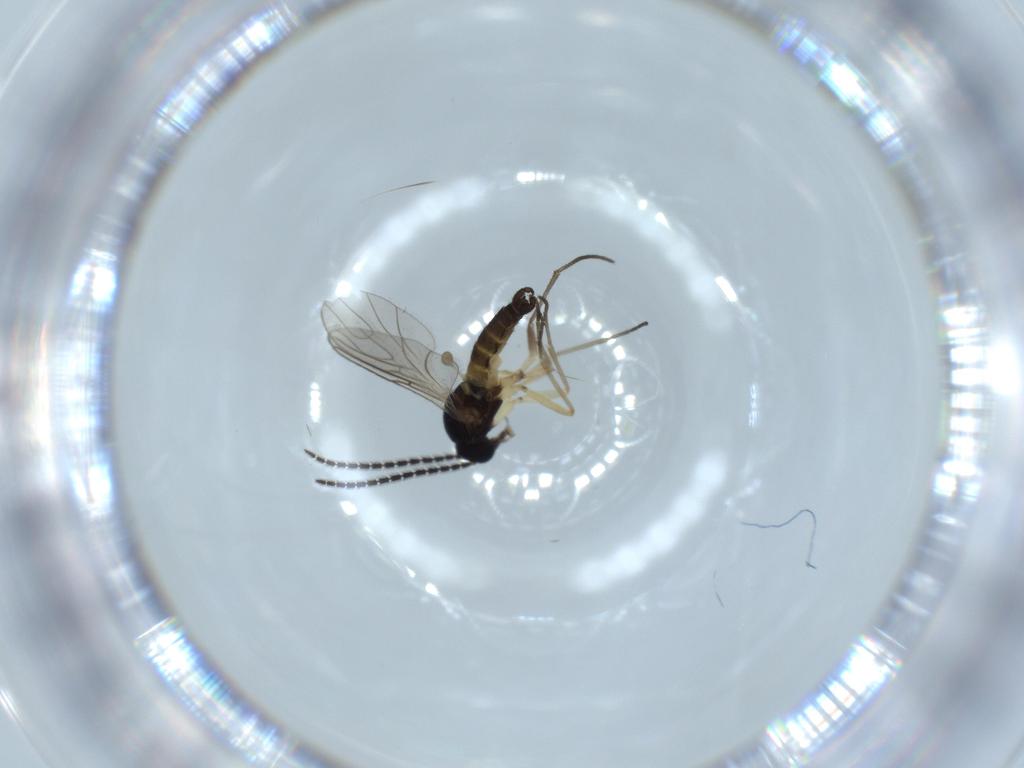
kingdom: Animalia
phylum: Arthropoda
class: Insecta
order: Diptera
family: Sciaridae
